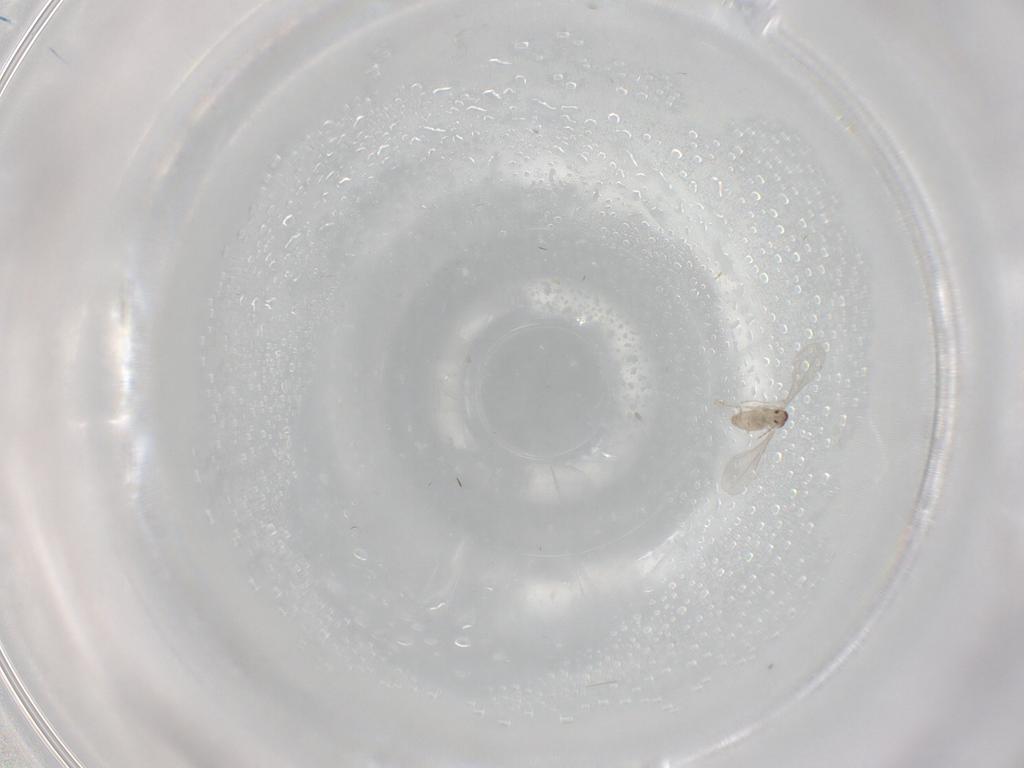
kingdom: Animalia
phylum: Arthropoda
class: Insecta
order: Diptera
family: Cecidomyiidae
